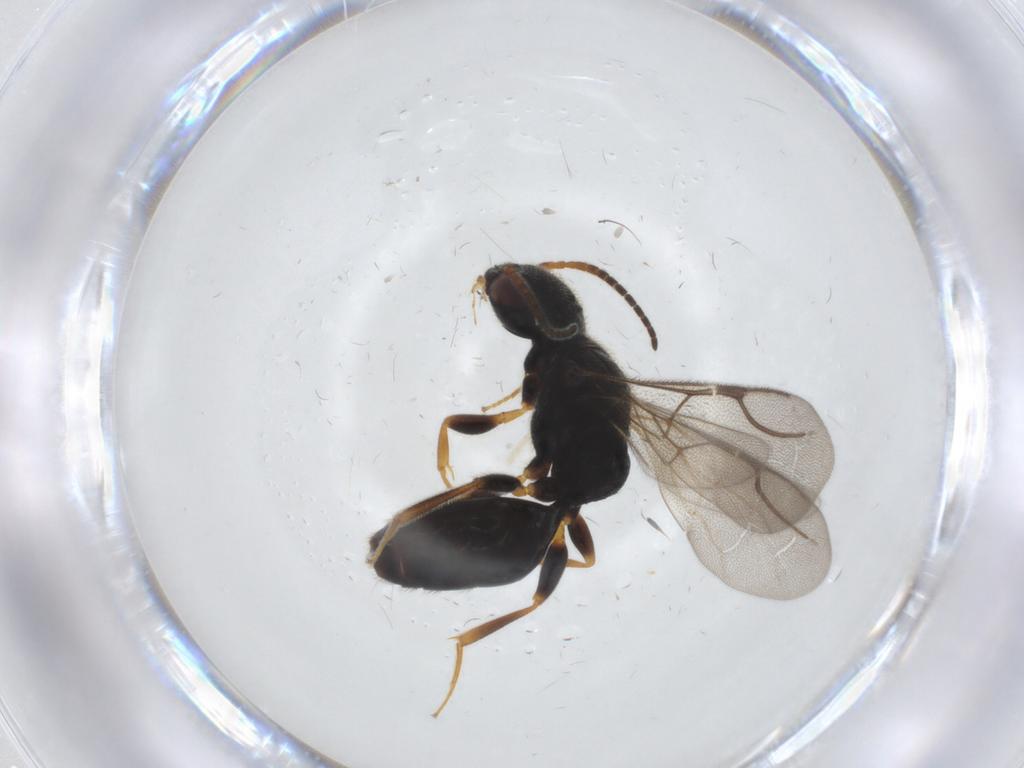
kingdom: Animalia
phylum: Arthropoda
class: Insecta
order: Hymenoptera
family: Bethylidae
